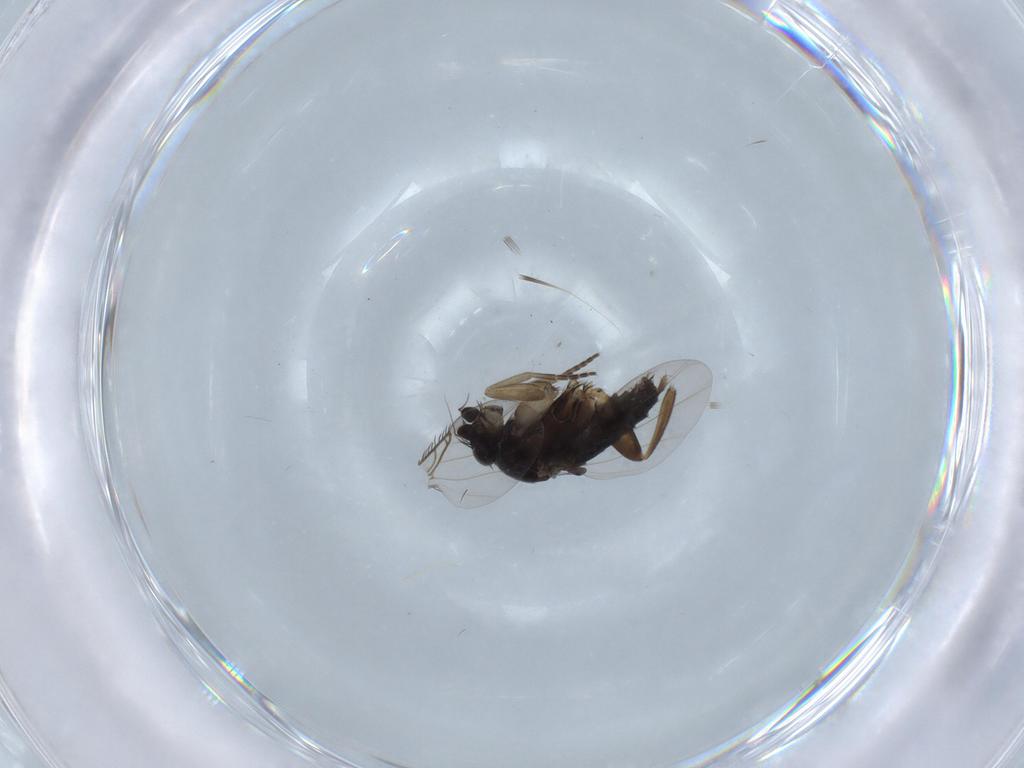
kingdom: Animalia
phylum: Arthropoda
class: Insecta
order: Diptera
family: Phoridae
